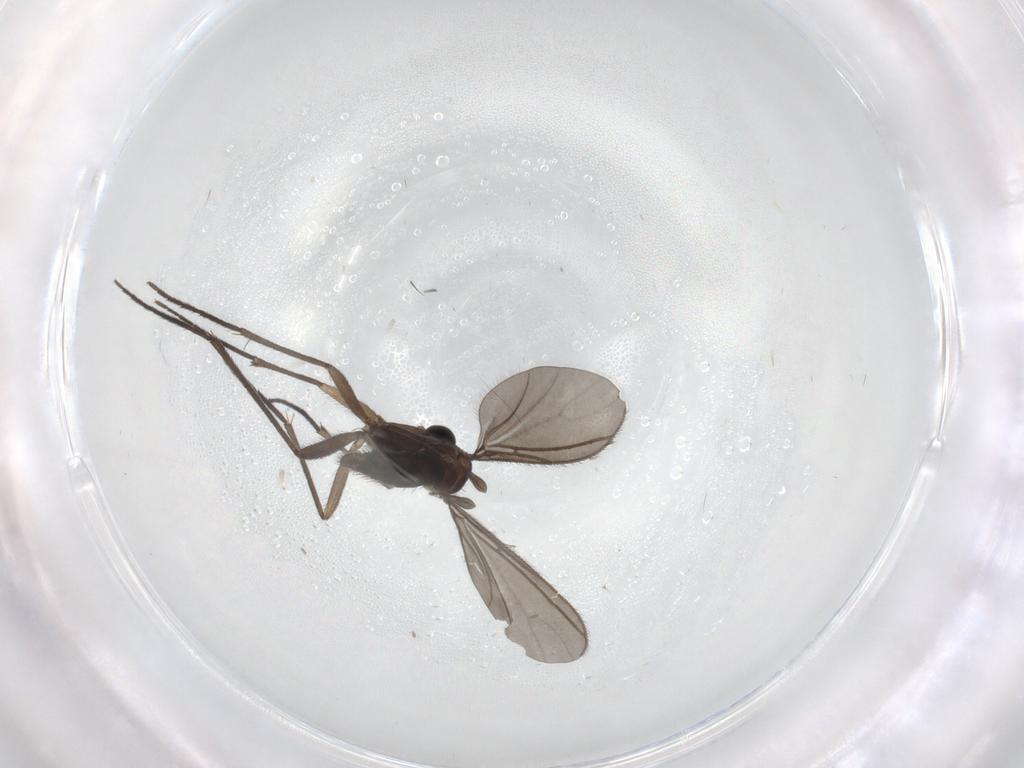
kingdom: Animalia
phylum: Arthropoda
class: Insecta
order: Diptera
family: Sciaridae
